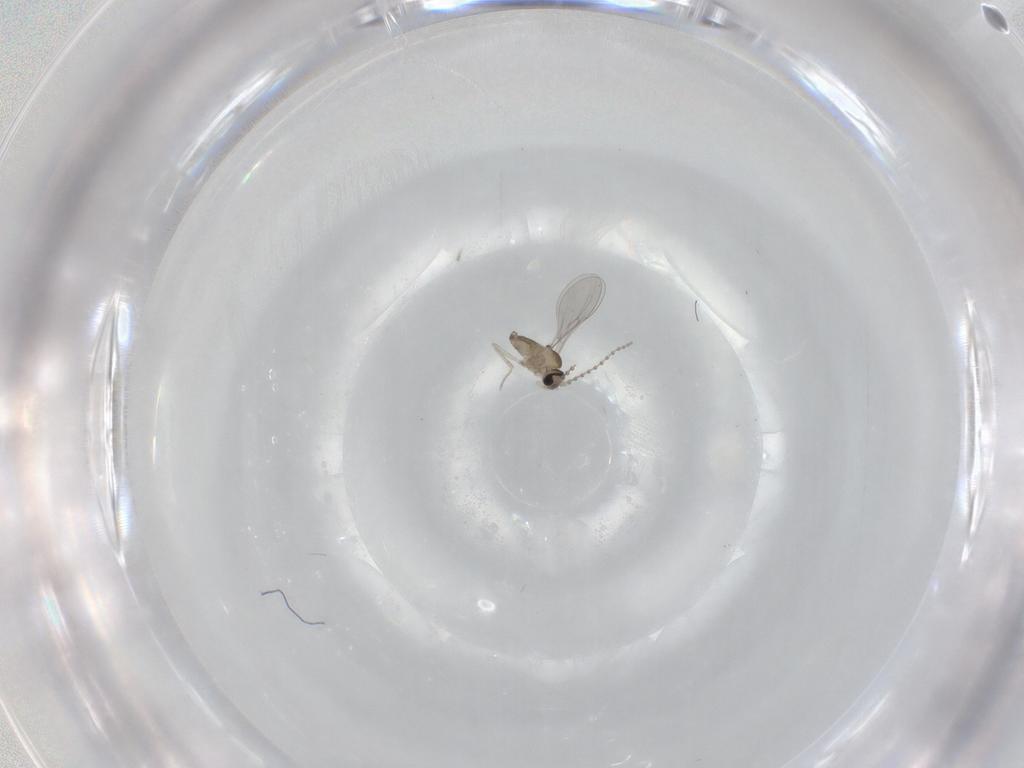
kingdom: Animalia
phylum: Arthropoda
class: Insecta
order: Diptera
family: Cecidomyiidae
